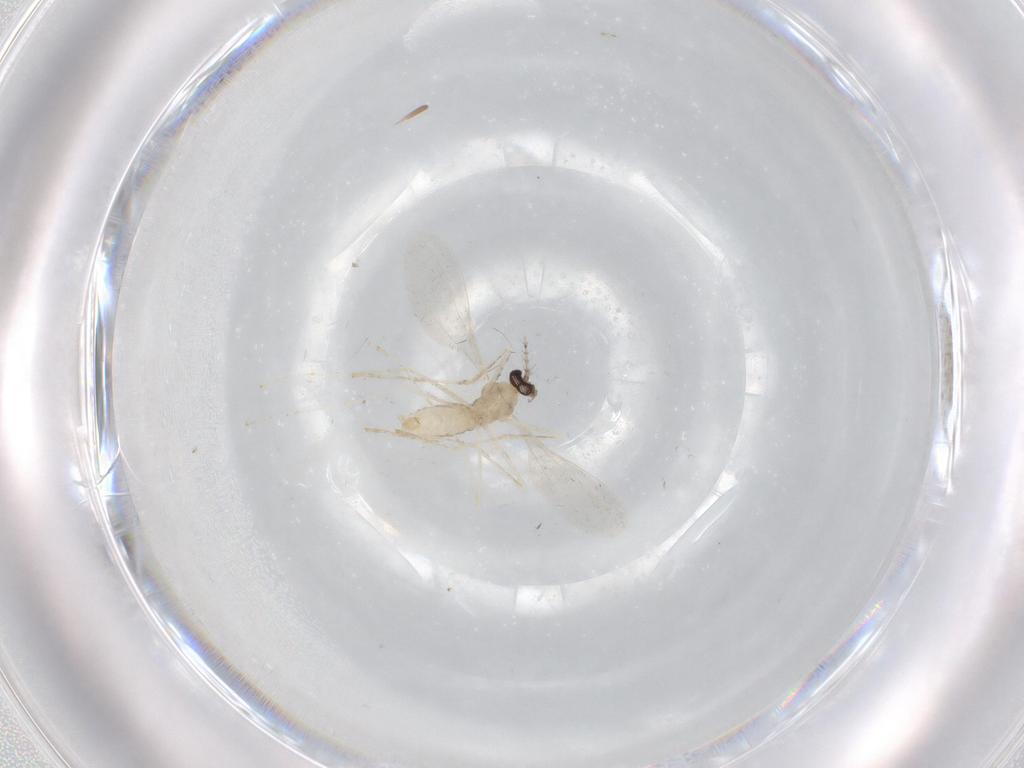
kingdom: Animalia
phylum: Arthropoda
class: Insecta
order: Diptera
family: Cecidomyiidae
